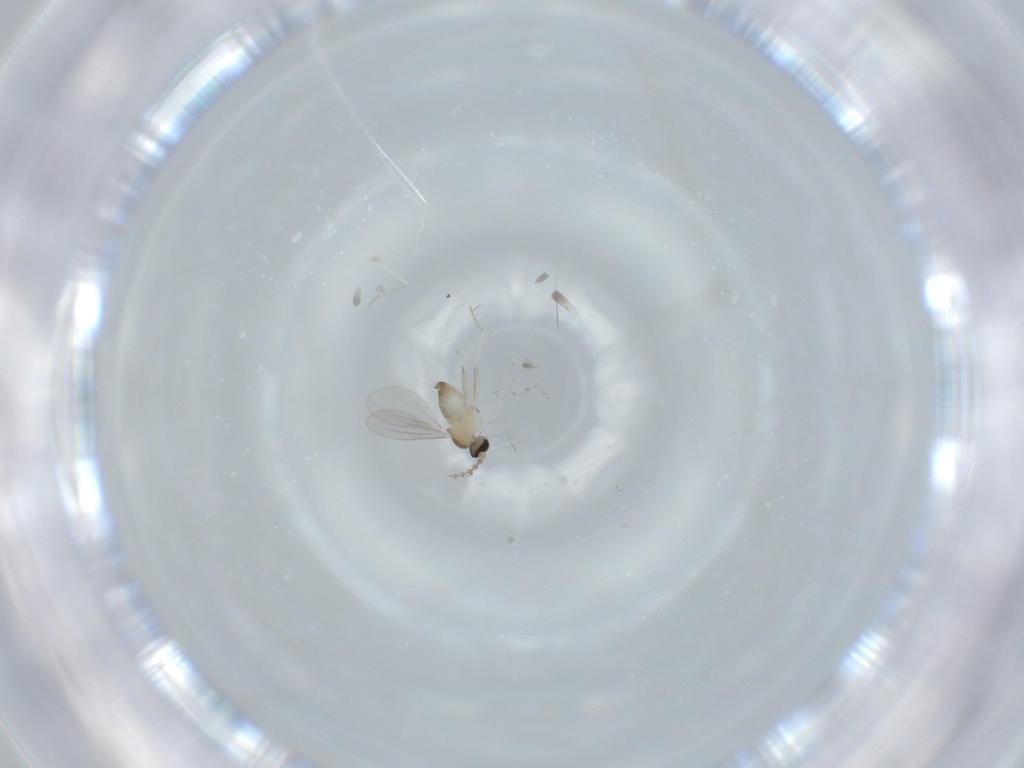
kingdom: Animalia
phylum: Arthropoda
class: Insecta
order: Diptera
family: Cecidomyiidae
